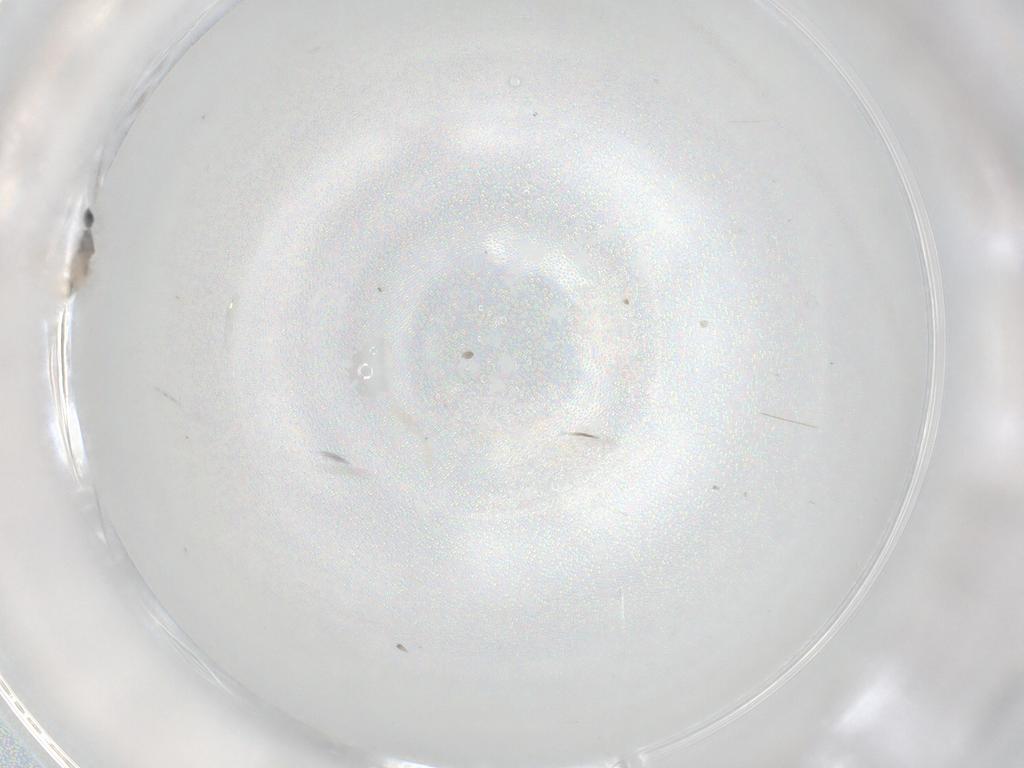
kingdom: Animalia
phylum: Arthropoda
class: Insecta
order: Diptera
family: Cecidomyiidae
